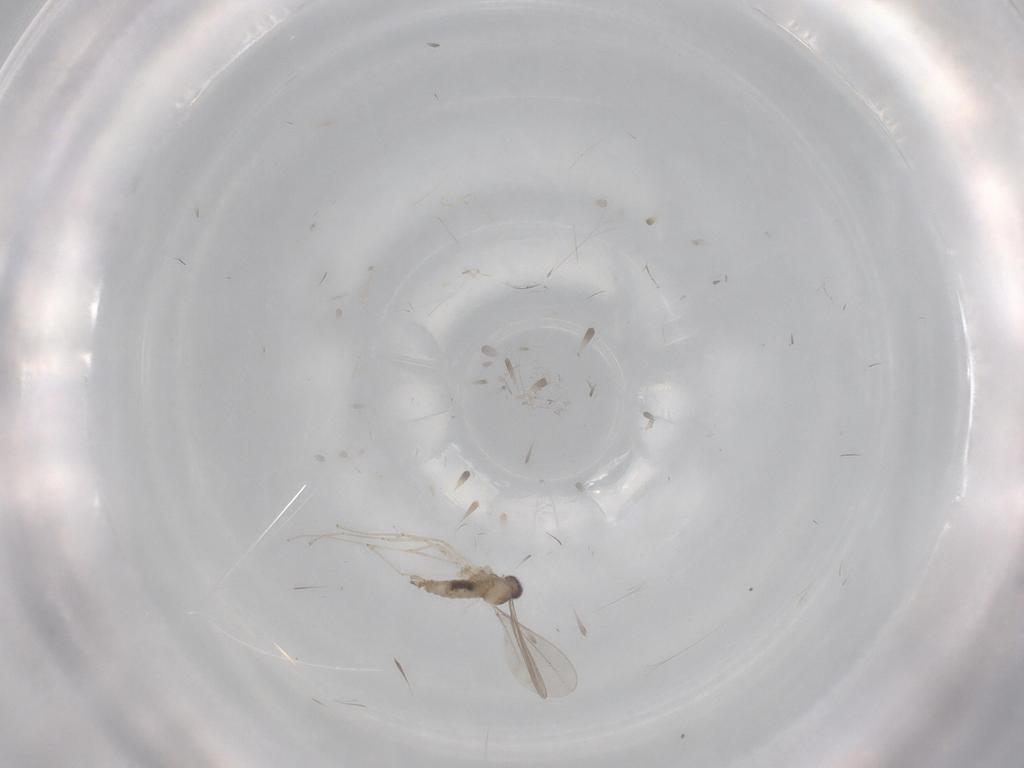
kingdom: Animalia
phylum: Arthropoda
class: Insecta
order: Diptera
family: Cecidomyiidae
